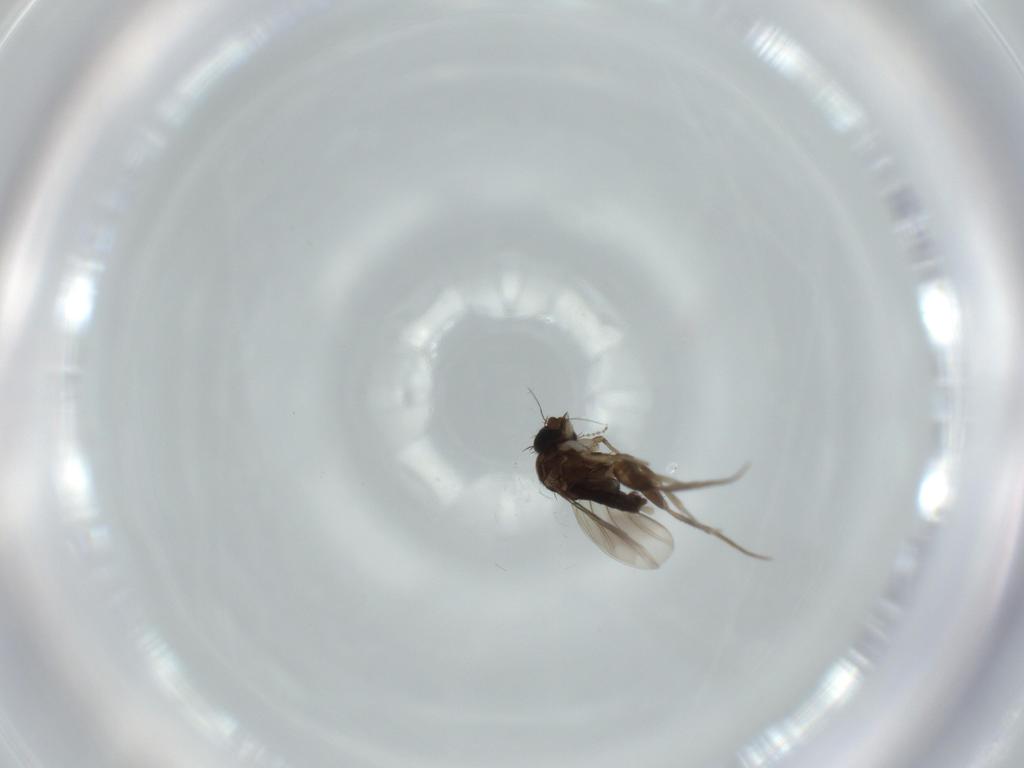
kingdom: Animalia
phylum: Arthropoda
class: Insecta
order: Diptera
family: Phoridae
